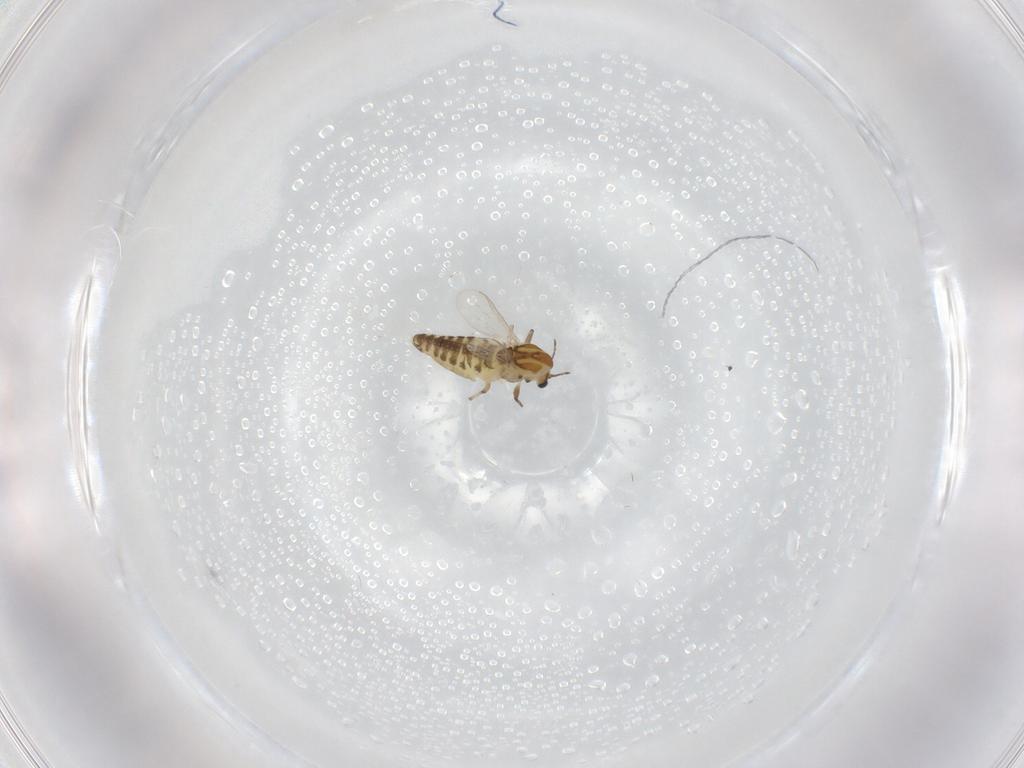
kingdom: Animalia
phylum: Arthropoda
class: Insecta
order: Diptera
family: Chironomidae
